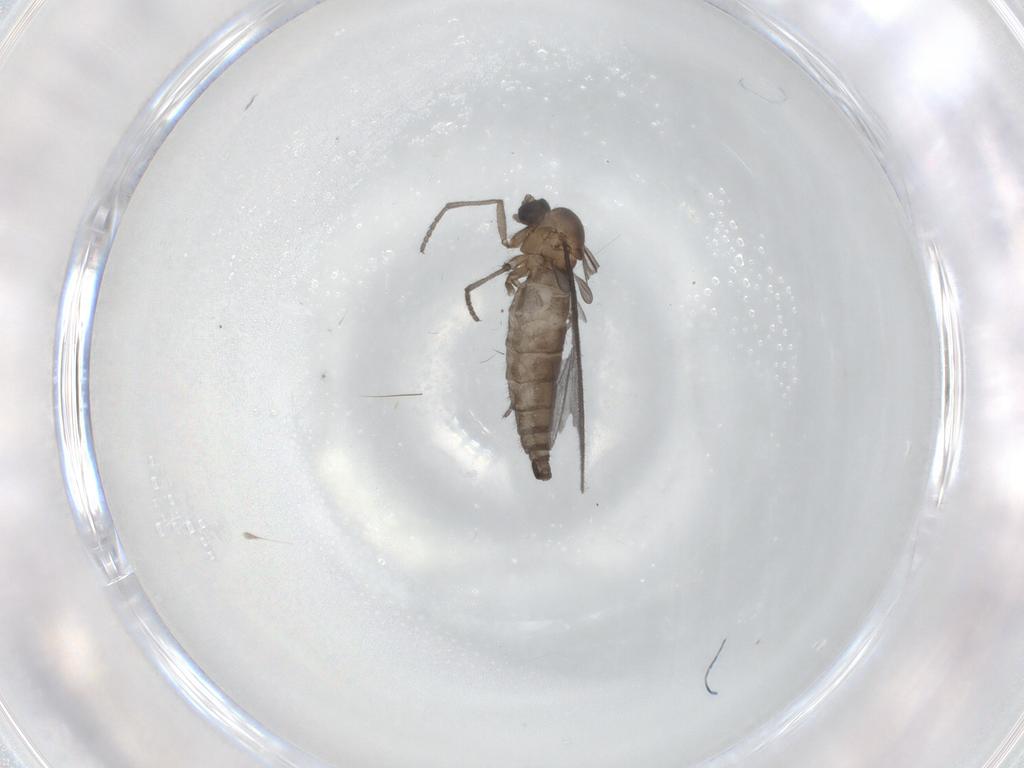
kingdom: Animalia
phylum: Arthropoda
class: Insecta
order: Diptera
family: Sciaridae
